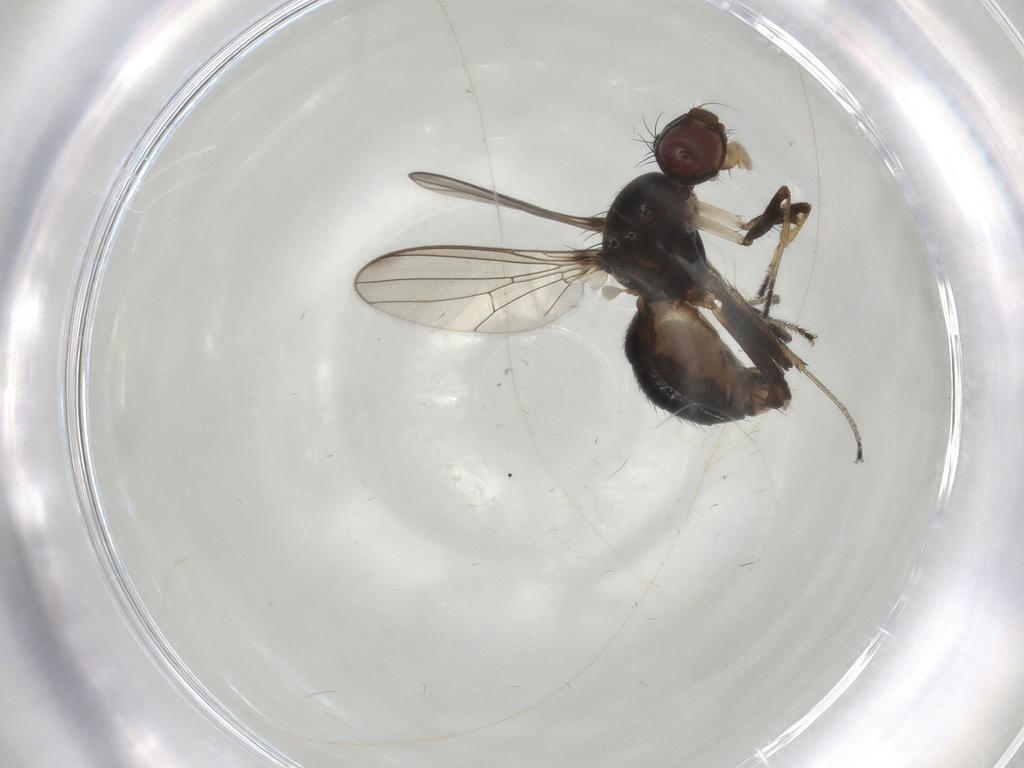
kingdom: Animalia
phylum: Arthropoda
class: Insecta
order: Diptera
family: Sepsidae
